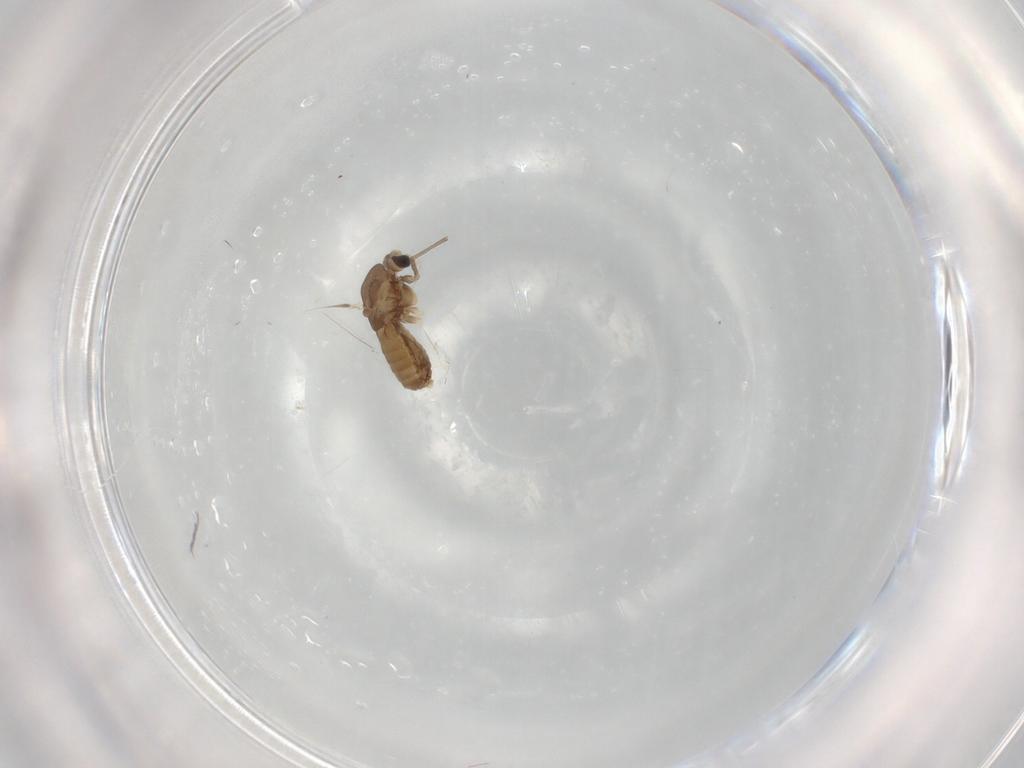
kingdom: Animalia
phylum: Arthropoda
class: Insecta
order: Diptera
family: Chironomidae
